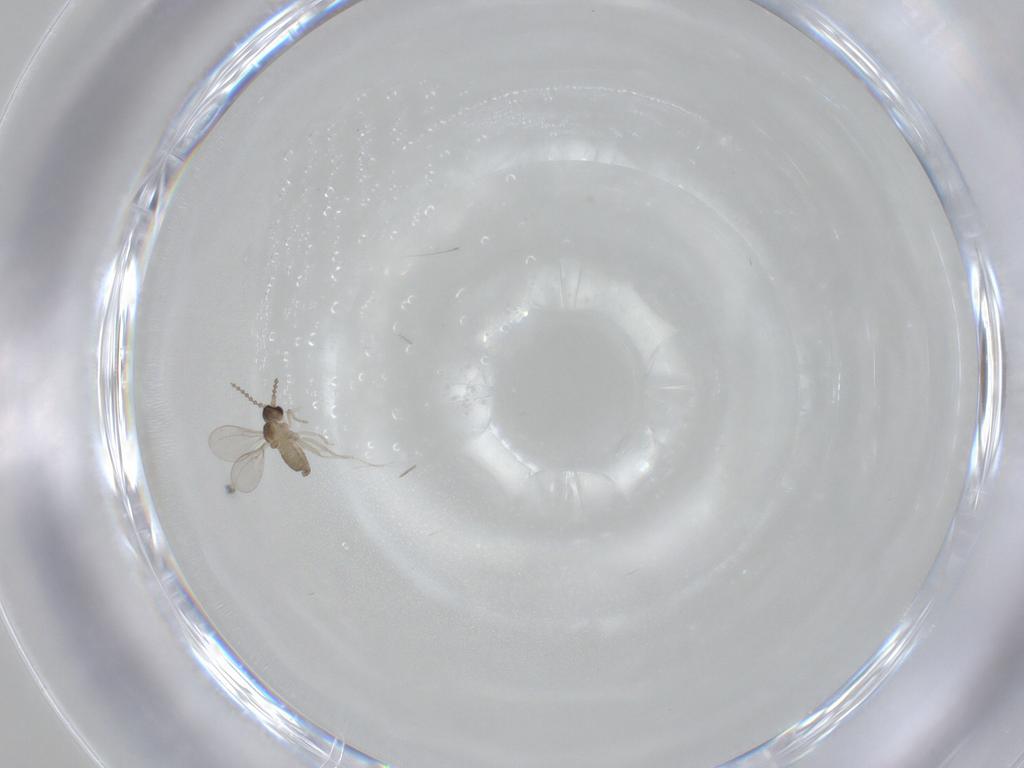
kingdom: Animalia
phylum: Arthropoda
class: Insecta
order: Diptera
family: Cecidomyiidae
